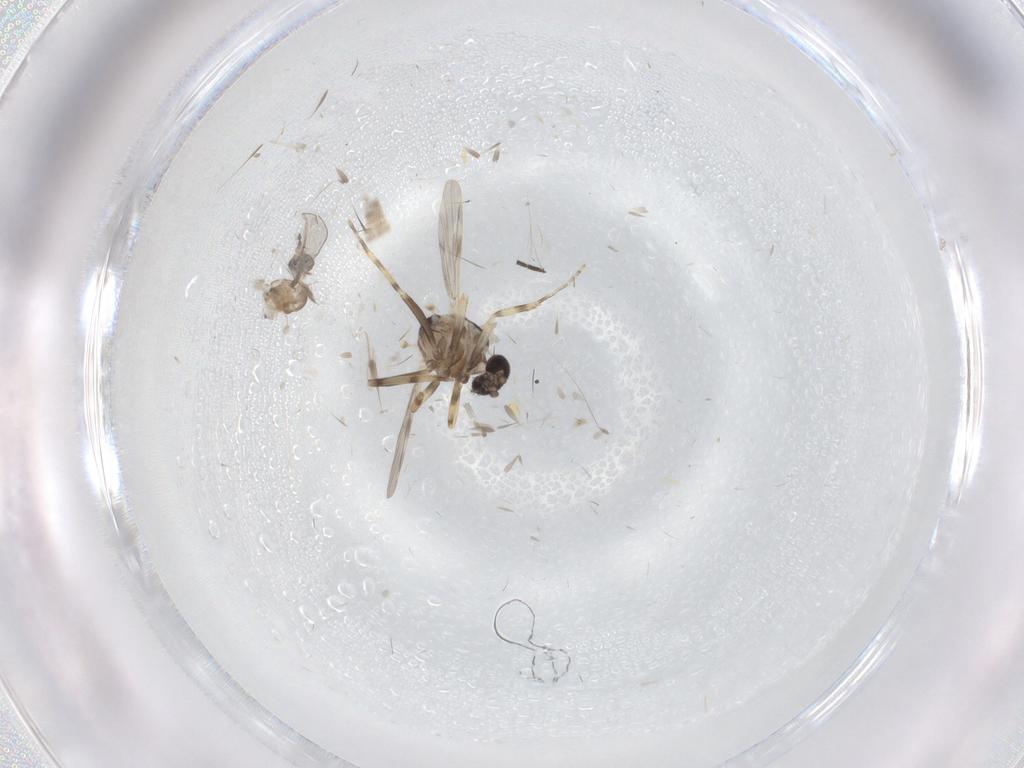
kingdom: Animalia
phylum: Arthropoda
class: Insecta
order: Diptera
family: Ceratopogonidae
